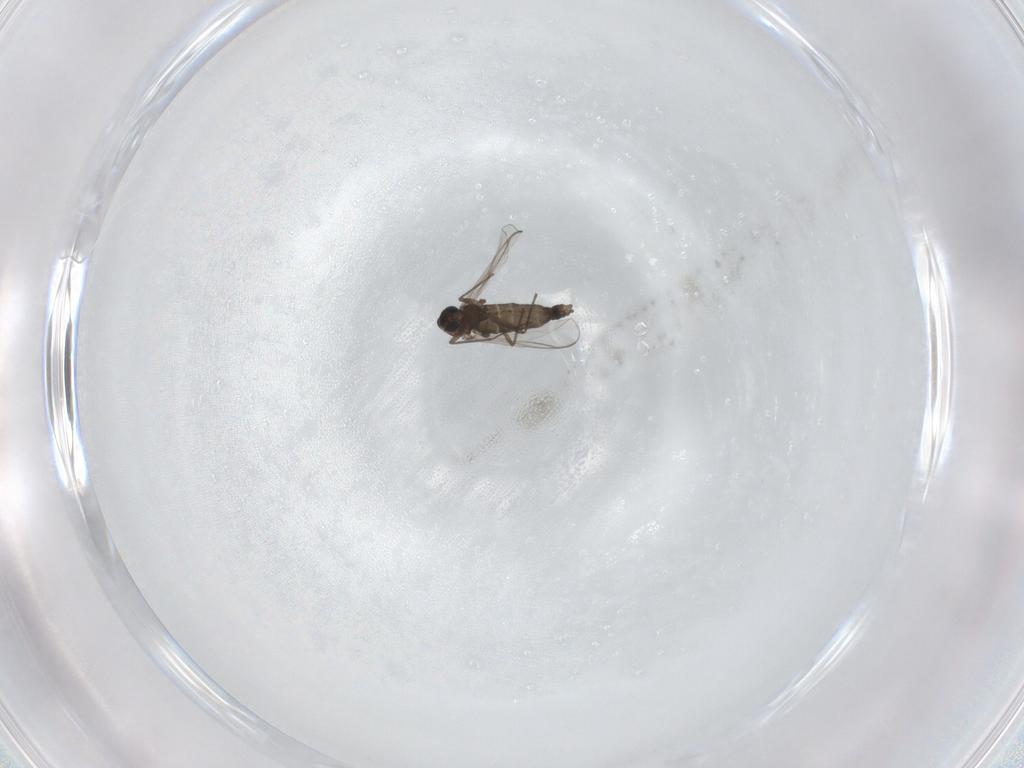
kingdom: Animalia
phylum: Arthropoda
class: Insecta
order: Diptera
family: Chironomidae
